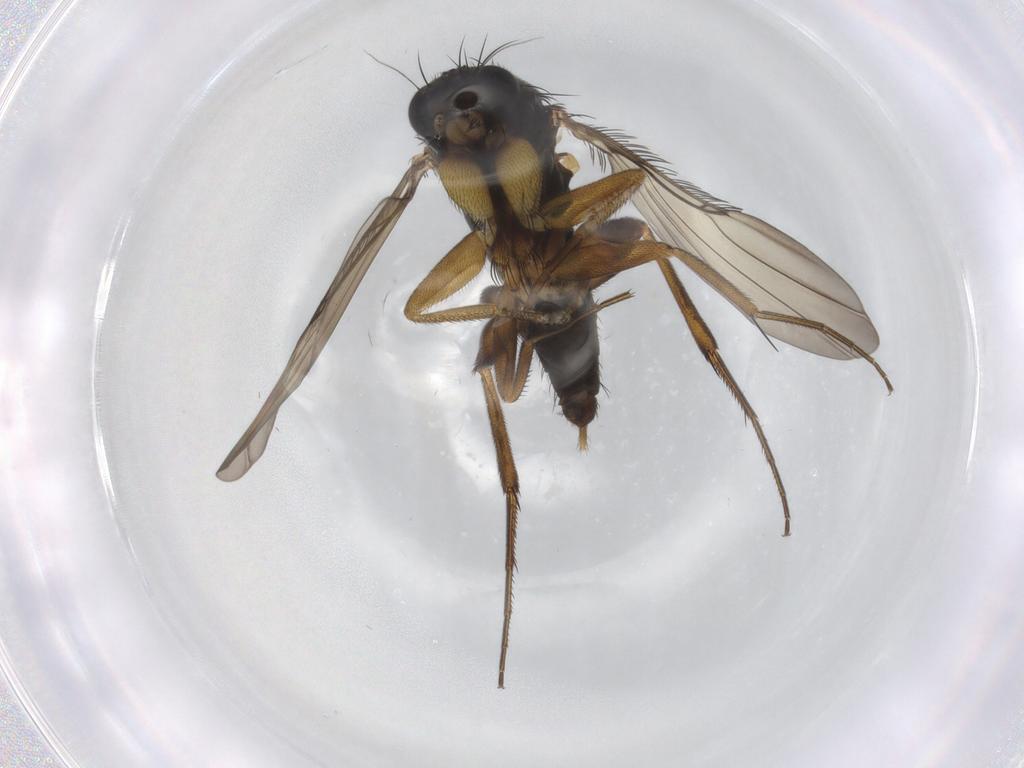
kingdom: Animalia
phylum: Arthropoda
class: Insecta
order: Diptera
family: Phoridae
